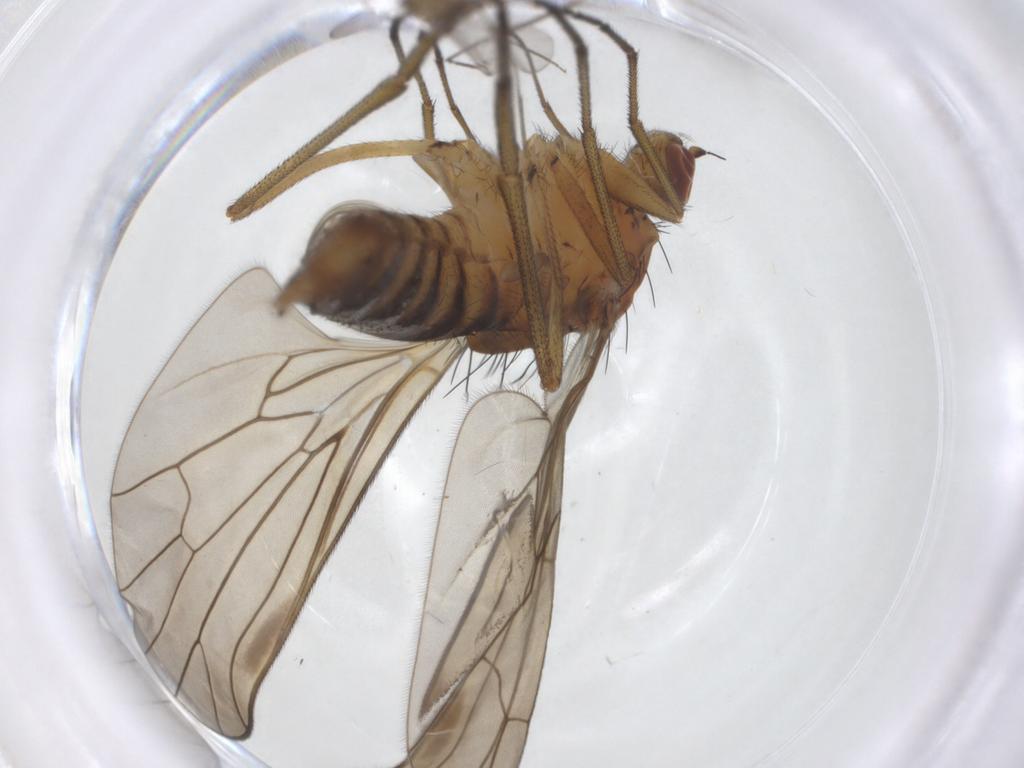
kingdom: Animalia
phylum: Arthropoda
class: Insecta
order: Diptera
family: Brachystomatidae
